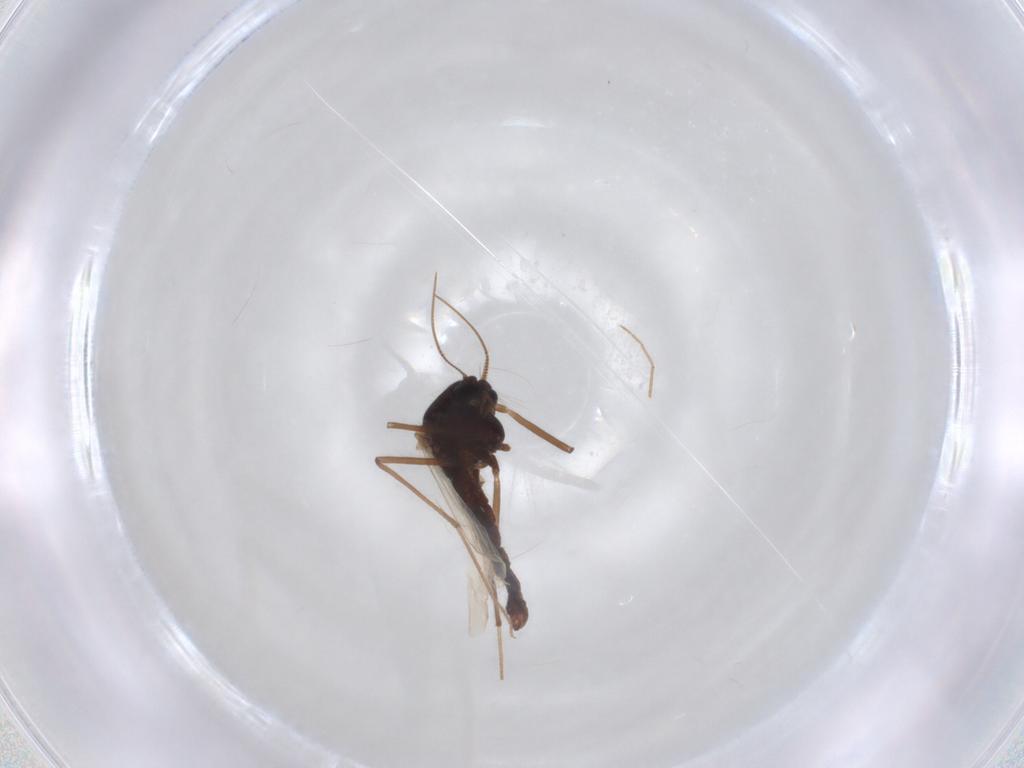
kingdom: Animalia
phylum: Arthropoda
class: Insecta
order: Diptera
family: Chironomidae
